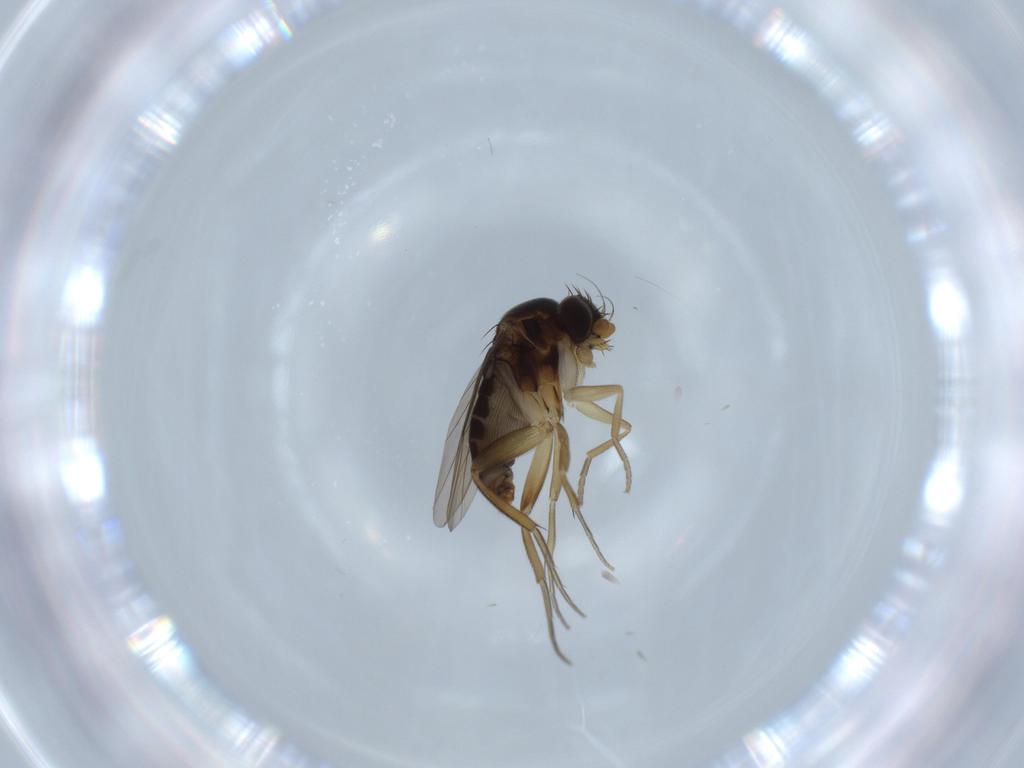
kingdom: Animalia
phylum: Arthropoda
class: Insecta
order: Diptera
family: Phoridae
